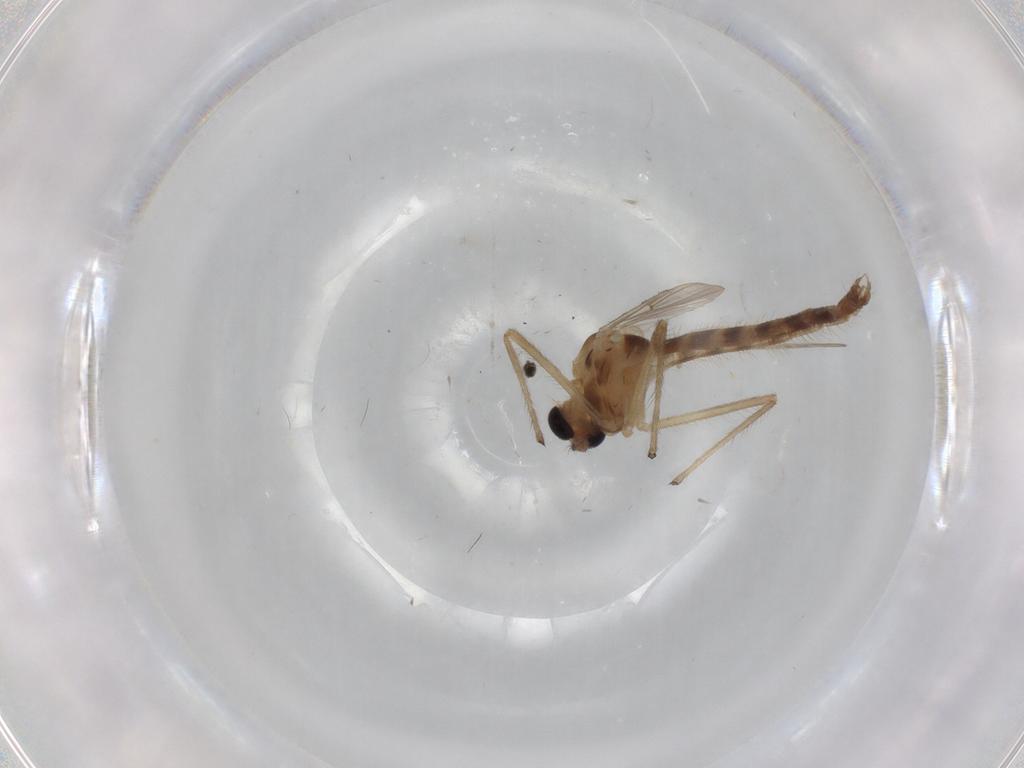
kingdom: Animalia
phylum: Arthropoda
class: Insecta
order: Diptera
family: Chironomidae
